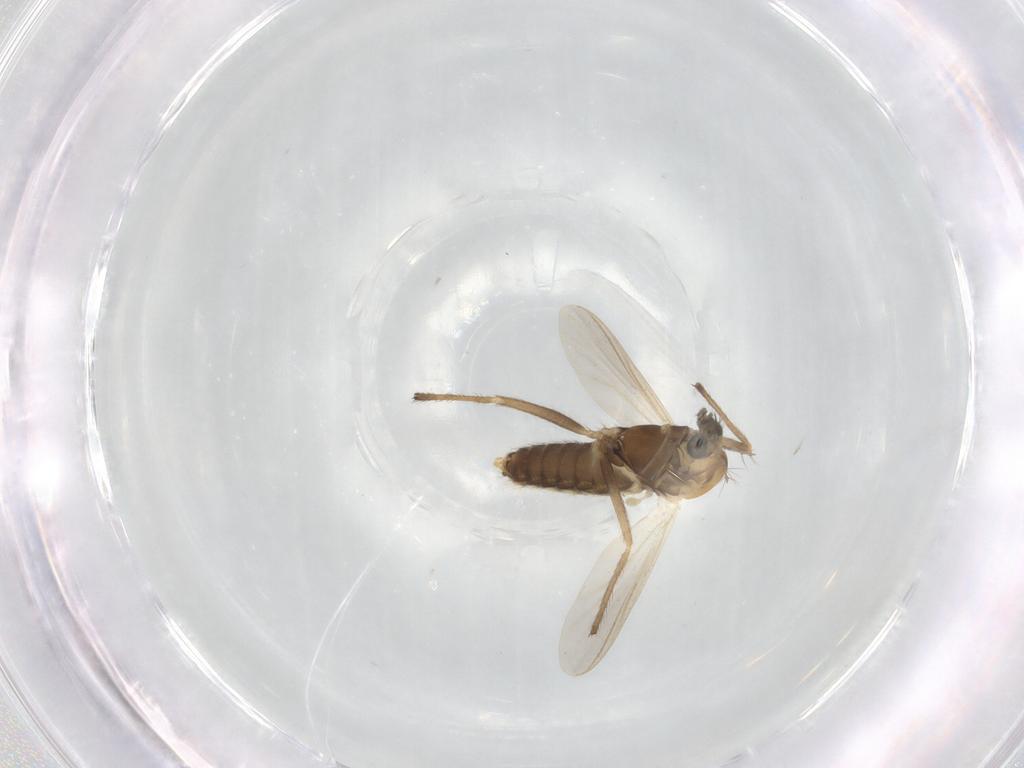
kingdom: Animalia
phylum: Arthropoda
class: Insecta
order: Diptera
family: Chironomidae
